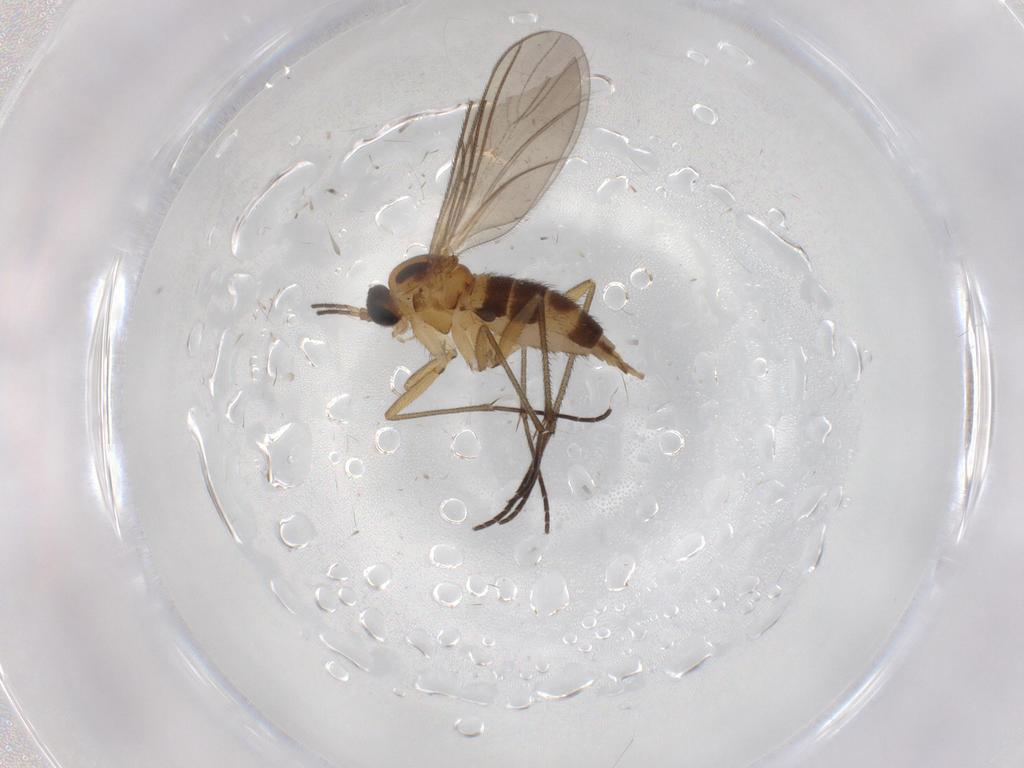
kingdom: Animalia
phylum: Arthropoda
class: Insecta
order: Diptera
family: Sciaridae
